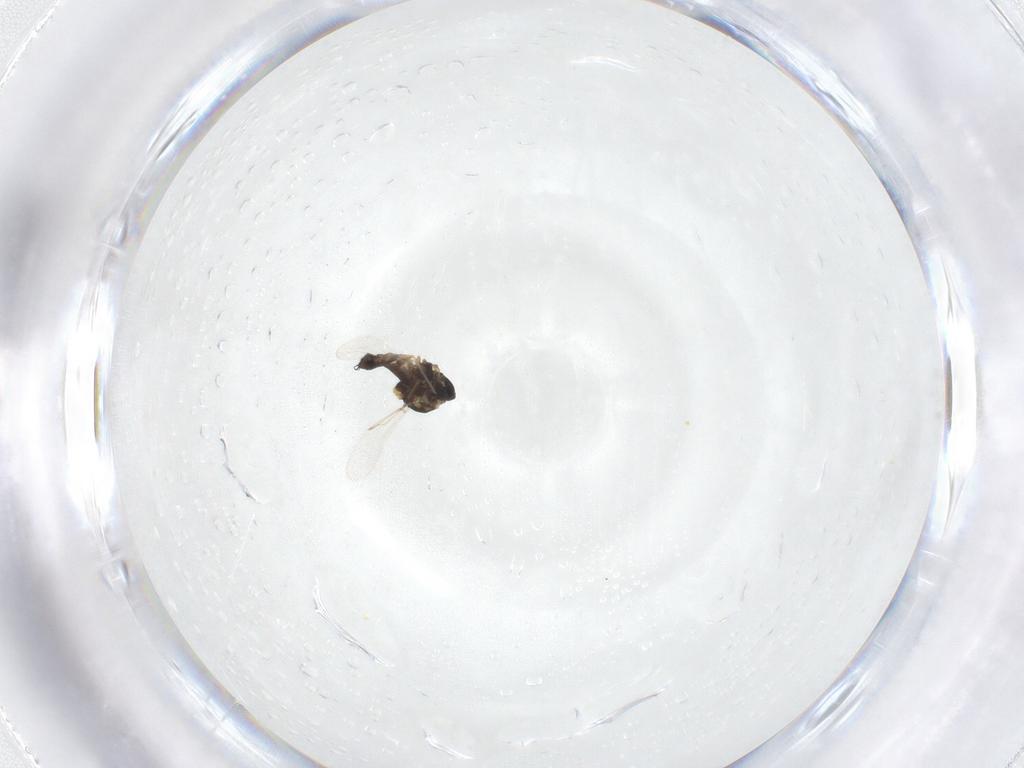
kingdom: Animalia
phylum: Arthropoda
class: Insecta
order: Diptera
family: Ceratopogonidae
